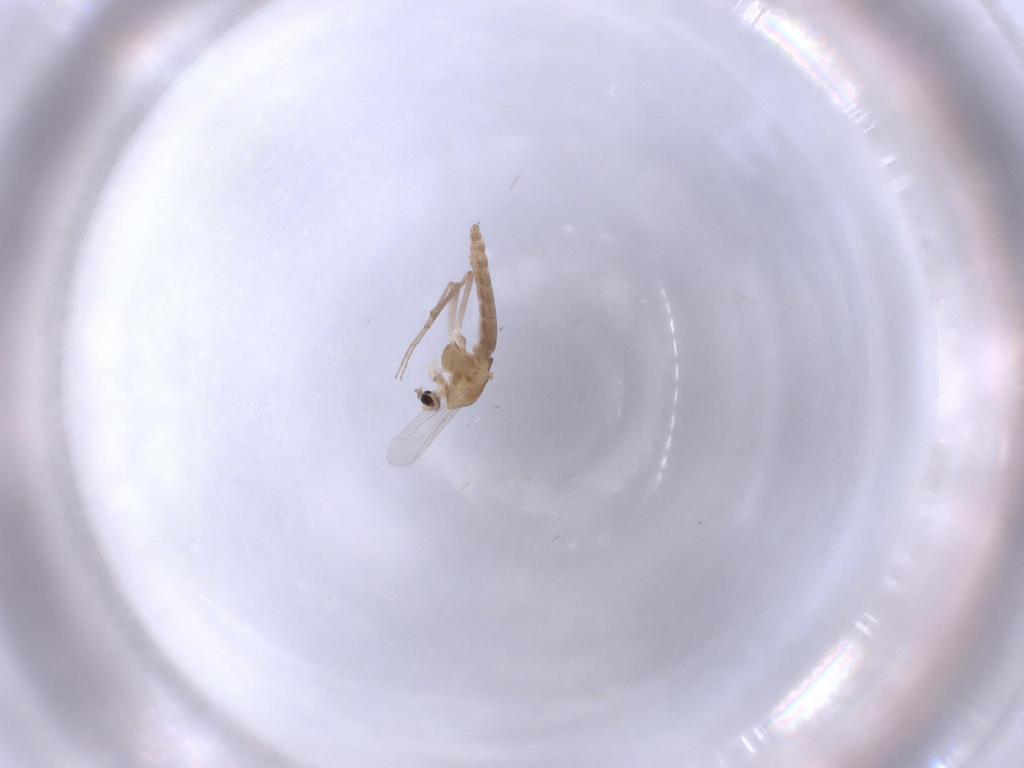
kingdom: Animalia
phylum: Arthropoda
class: Insecta
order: Diptera
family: Chironomidae
